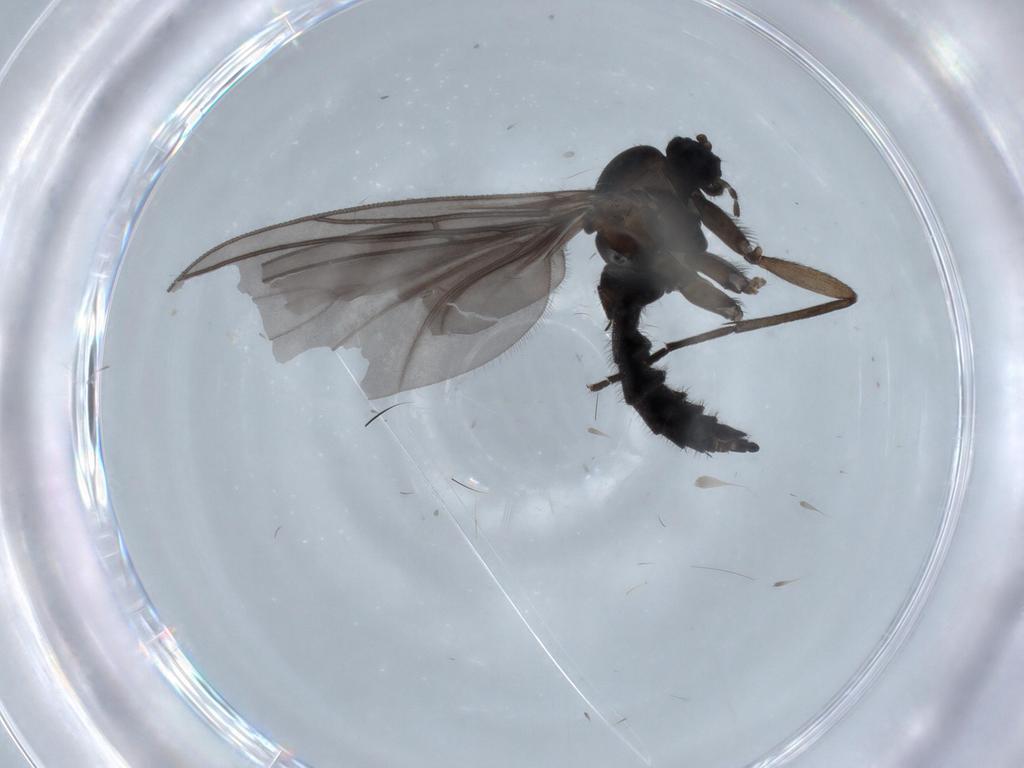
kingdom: Animalia
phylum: Arthropoda
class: Insecta
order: Diptera
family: Sciaridae
